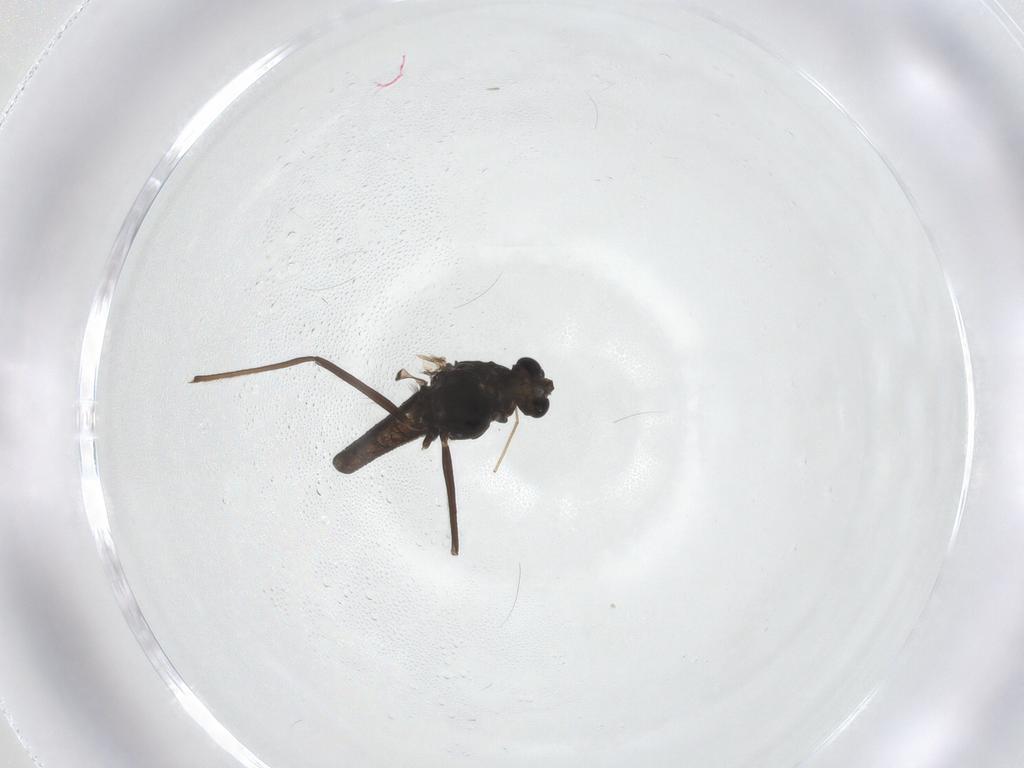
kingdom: Animalia
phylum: Arthropoda
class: Insecta
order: Diptera
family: Chironomidae
